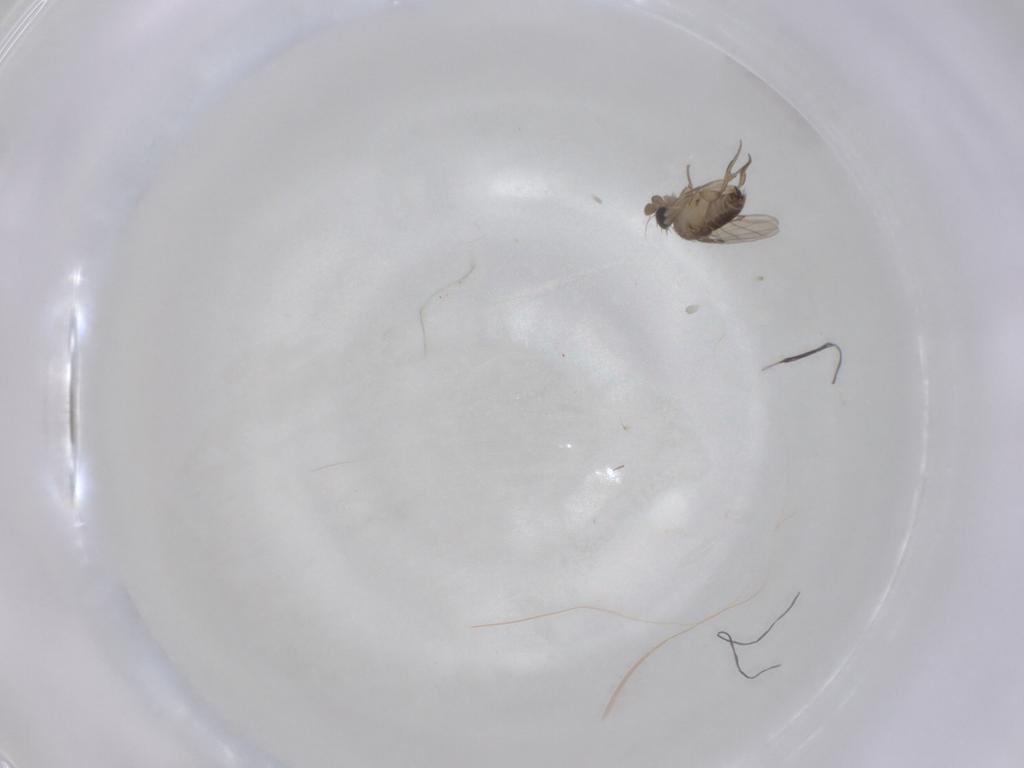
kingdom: Animalia
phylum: Arthropoda
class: Insecta
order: Diptera
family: Phoridae
